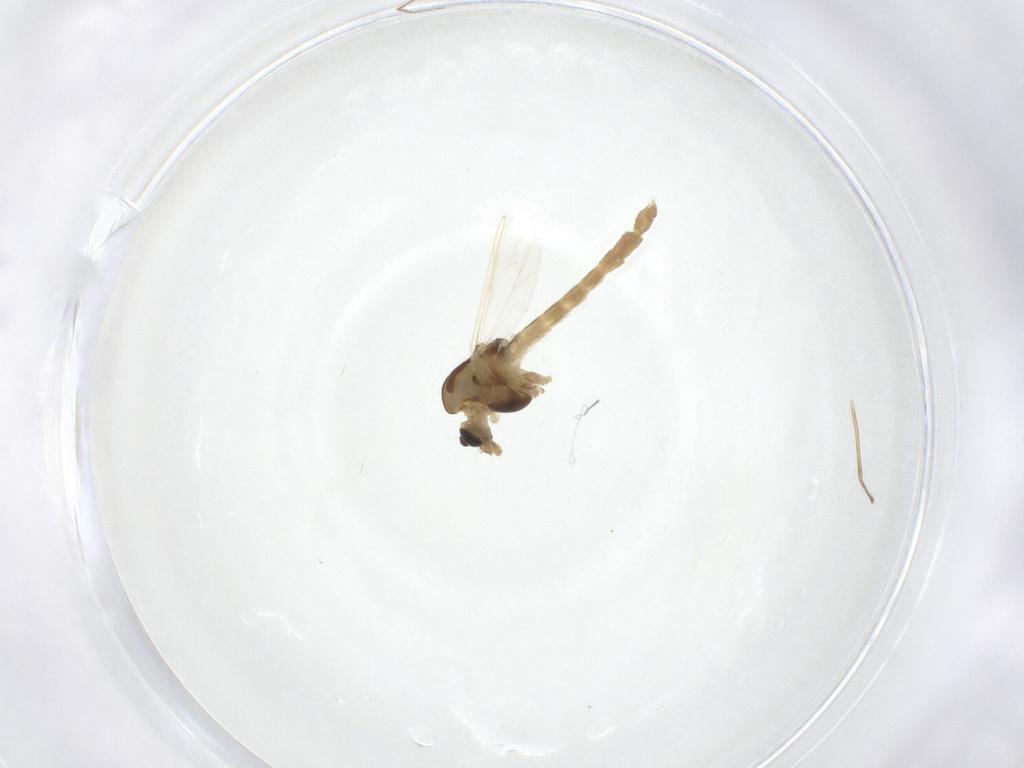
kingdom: Animalia
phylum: Arthropoda
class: Insecta
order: Diptera
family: Chironomidae
